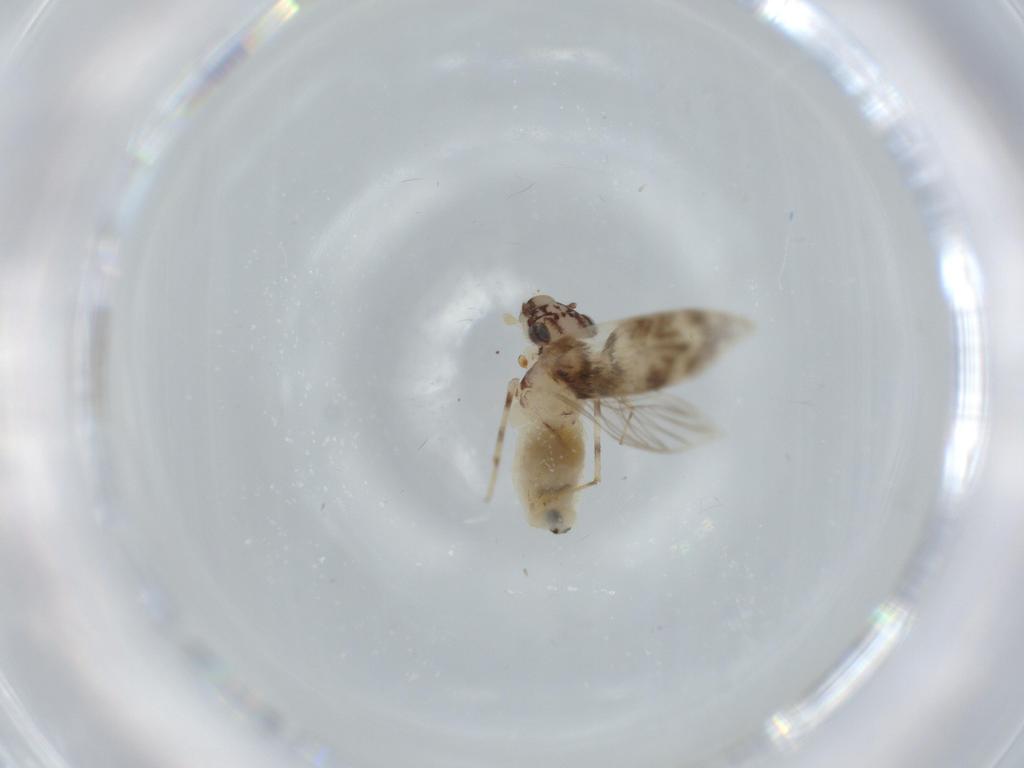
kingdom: Animalia
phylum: Arthropoda
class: Insecta
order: Psocodea
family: Lepidopsocidae
